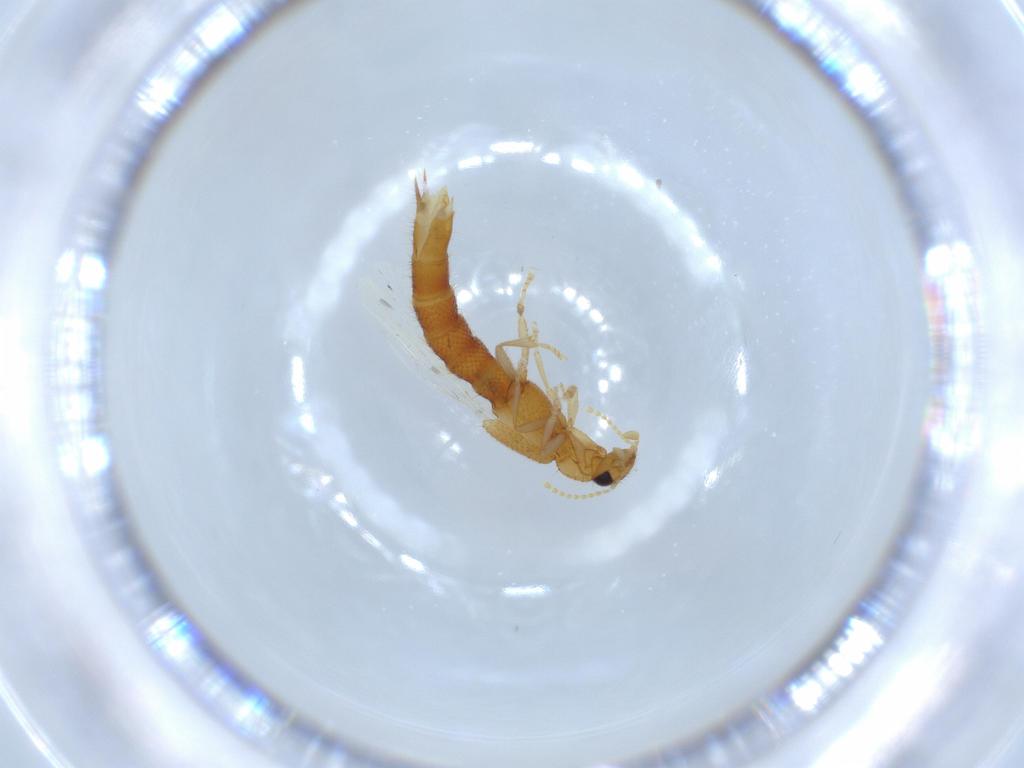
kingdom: Animalia
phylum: Arthropoda
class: Insecta
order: Coleoptera
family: Staphylinidae
